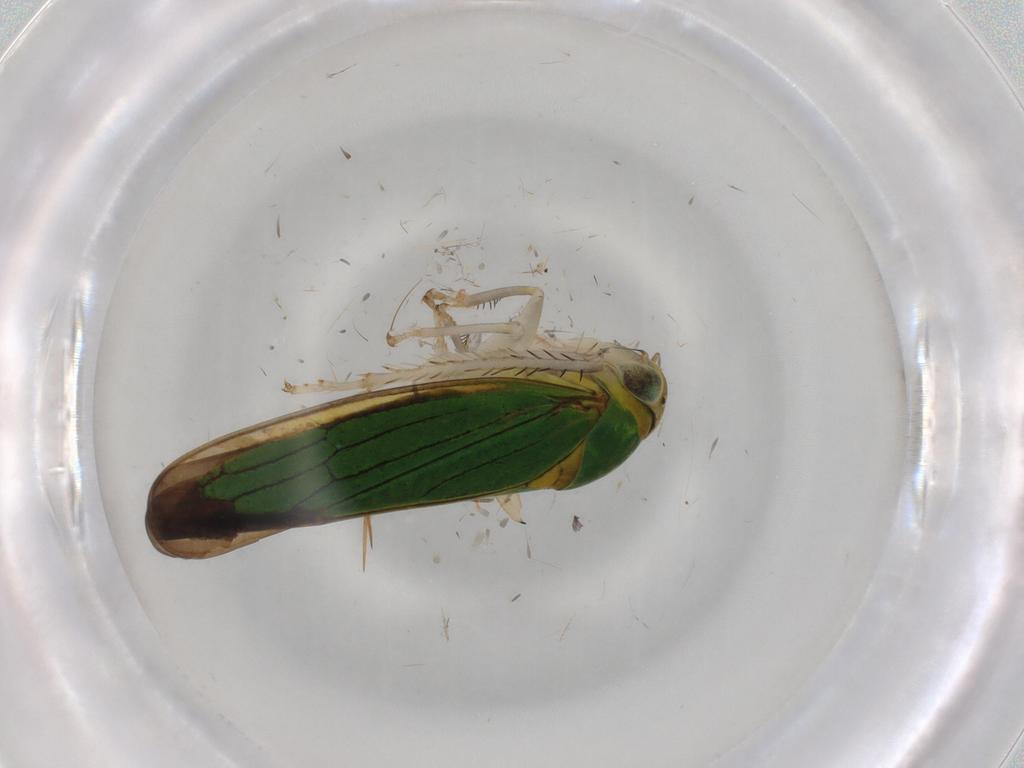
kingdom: Animalia
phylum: Arthropoda
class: Insecta
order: Hemiptera
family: Cicadellidae
